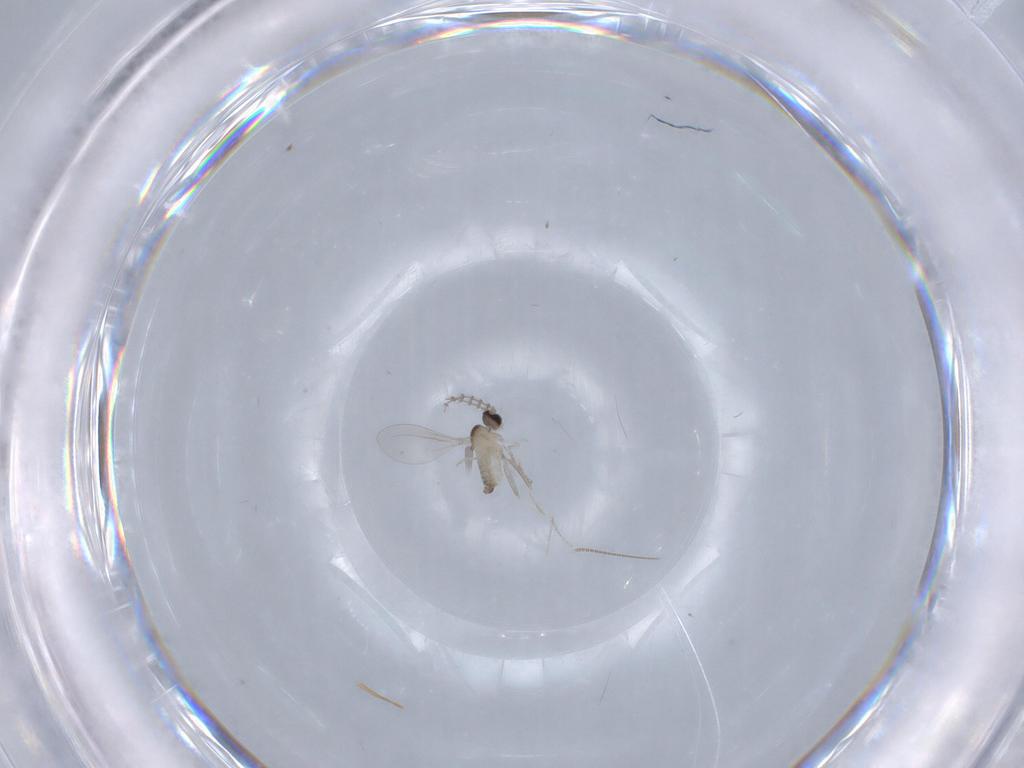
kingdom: Animalia
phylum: Arthropoda
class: Insecta
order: Diptera
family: Cecidomyiidae
